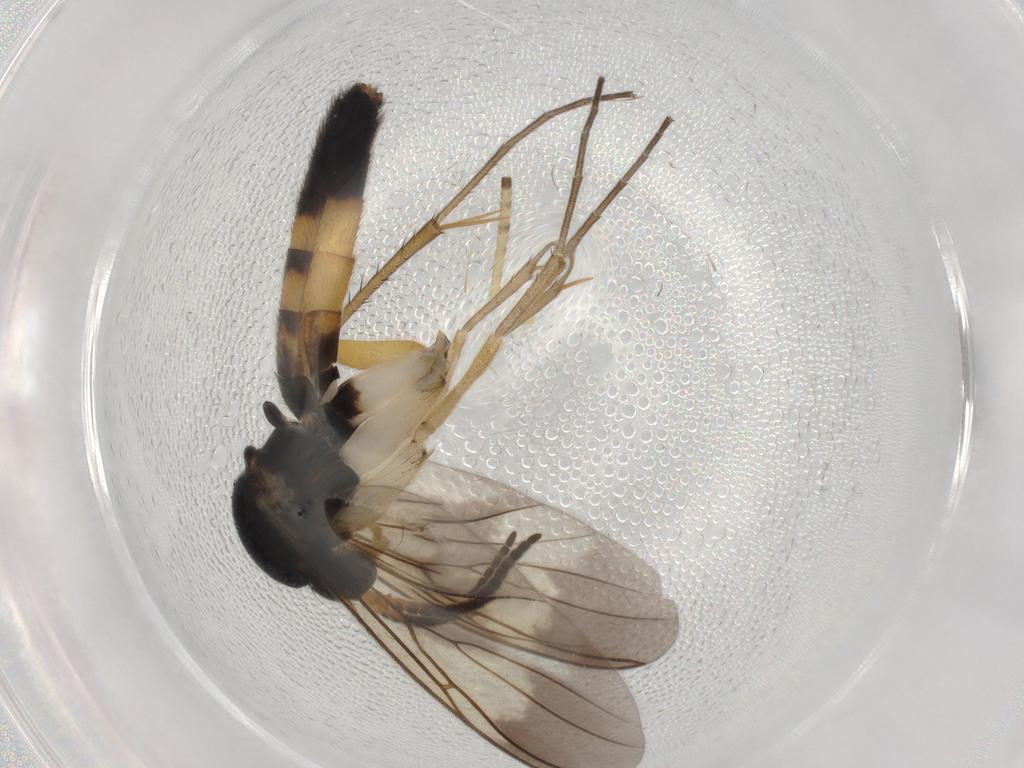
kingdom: Animalia
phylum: Arthropoda
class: Insecta
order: Diptera
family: Mycetophilidae
